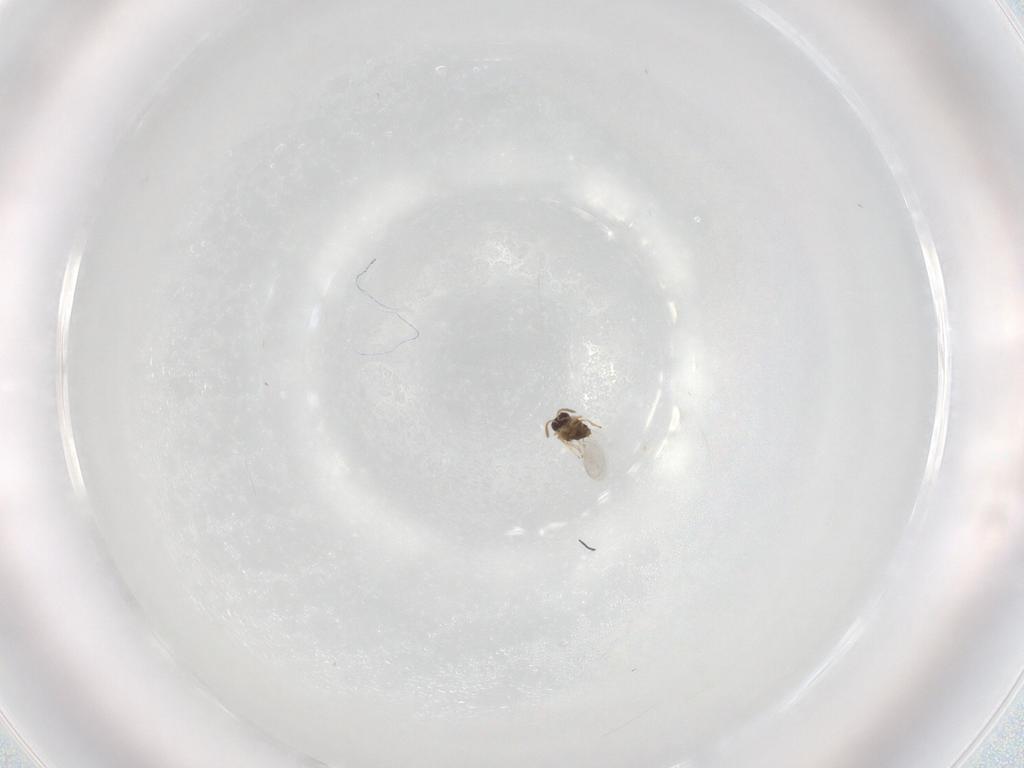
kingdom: Animalia
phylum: Arthropoda
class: Insecta
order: Hymenoptera
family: Encyrtidae
